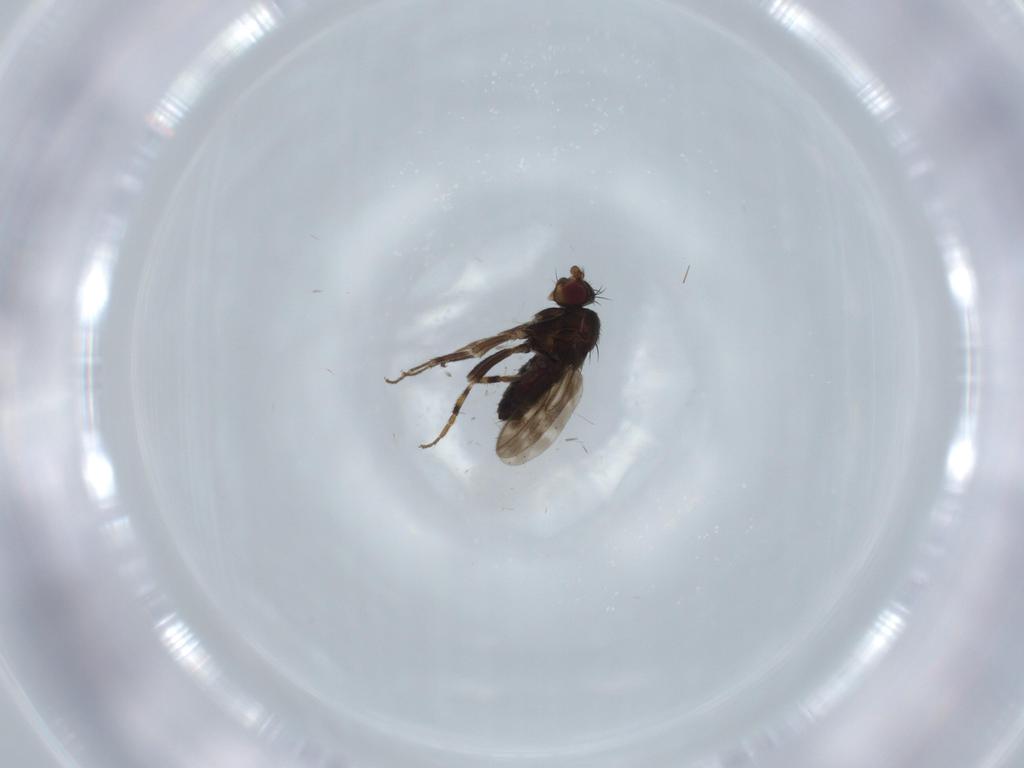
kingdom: Animalia
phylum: Arthropoda
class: Insecta
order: Diptera
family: Sphaeroceridae
